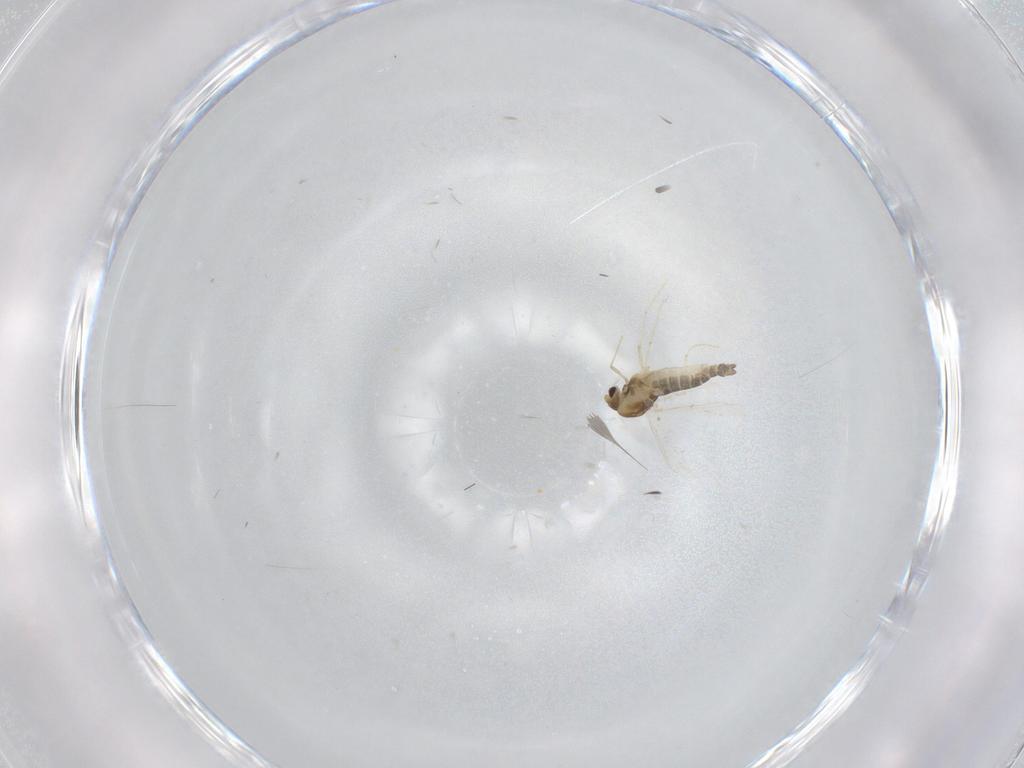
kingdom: Animalia
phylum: Arthropoda
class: Insecta
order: Diptera
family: Chironomidae
